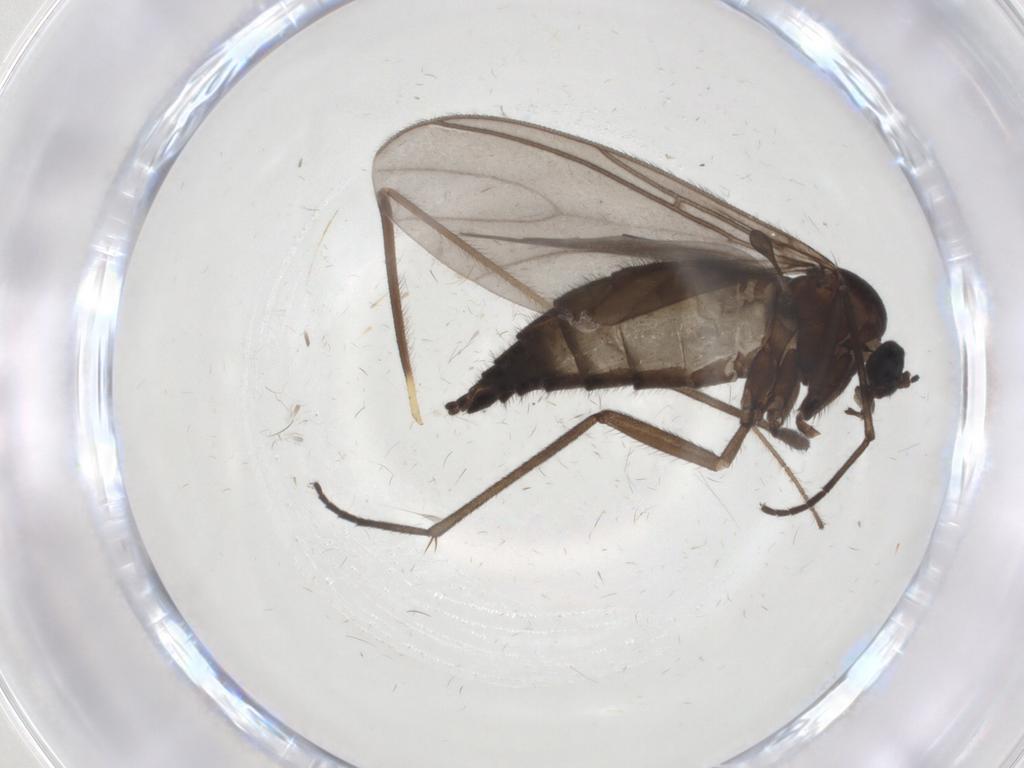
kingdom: Animalia
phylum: Arthropoda
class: Insecta
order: Diptera
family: Sciaridae
